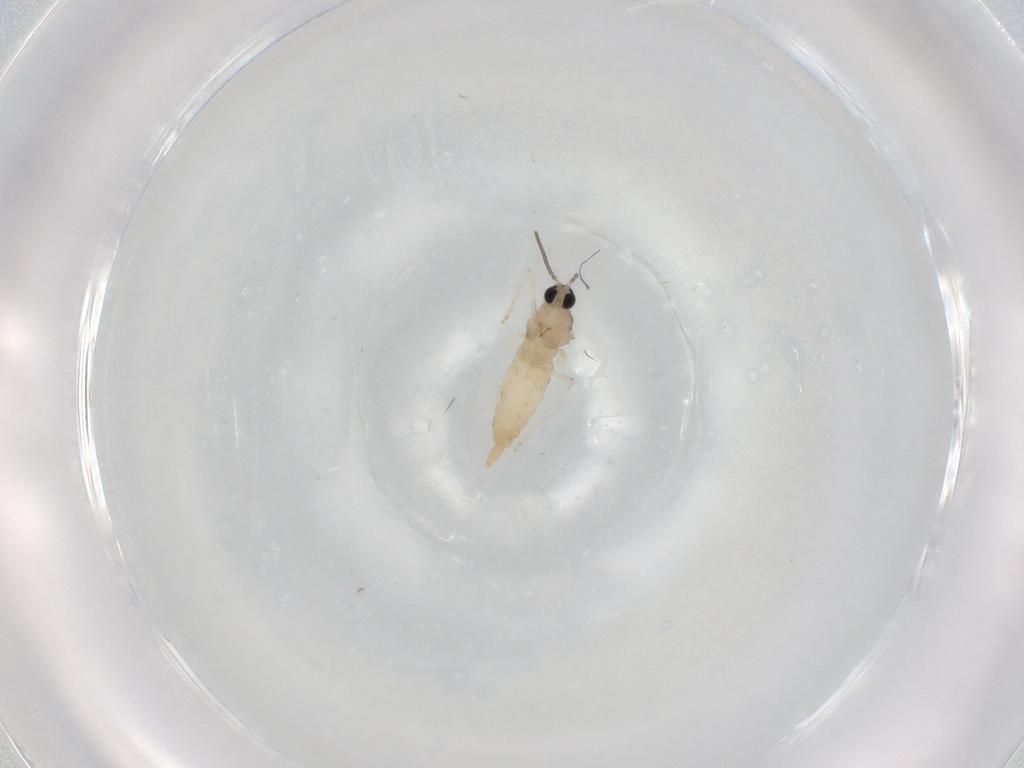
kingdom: Animalia
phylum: Arthropoda
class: Insecta
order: Diptera
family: Cecidomyiidae
